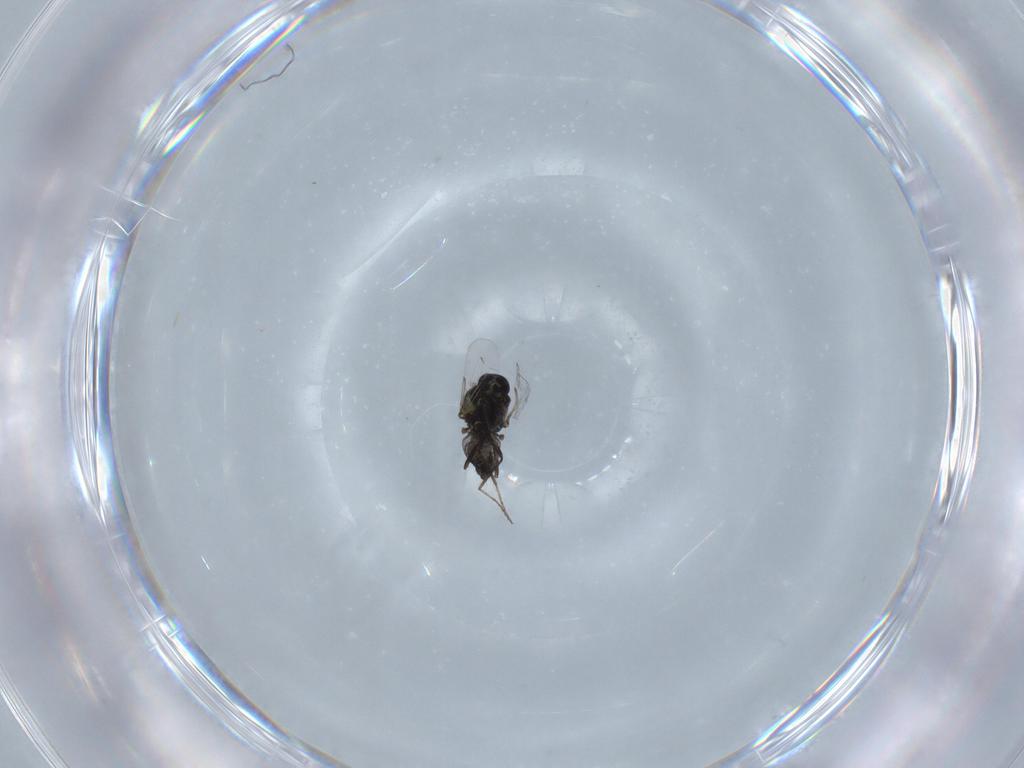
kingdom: Animalia
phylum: Arthropoda
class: Insecta
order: Diptera
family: Ceratopogonidae
